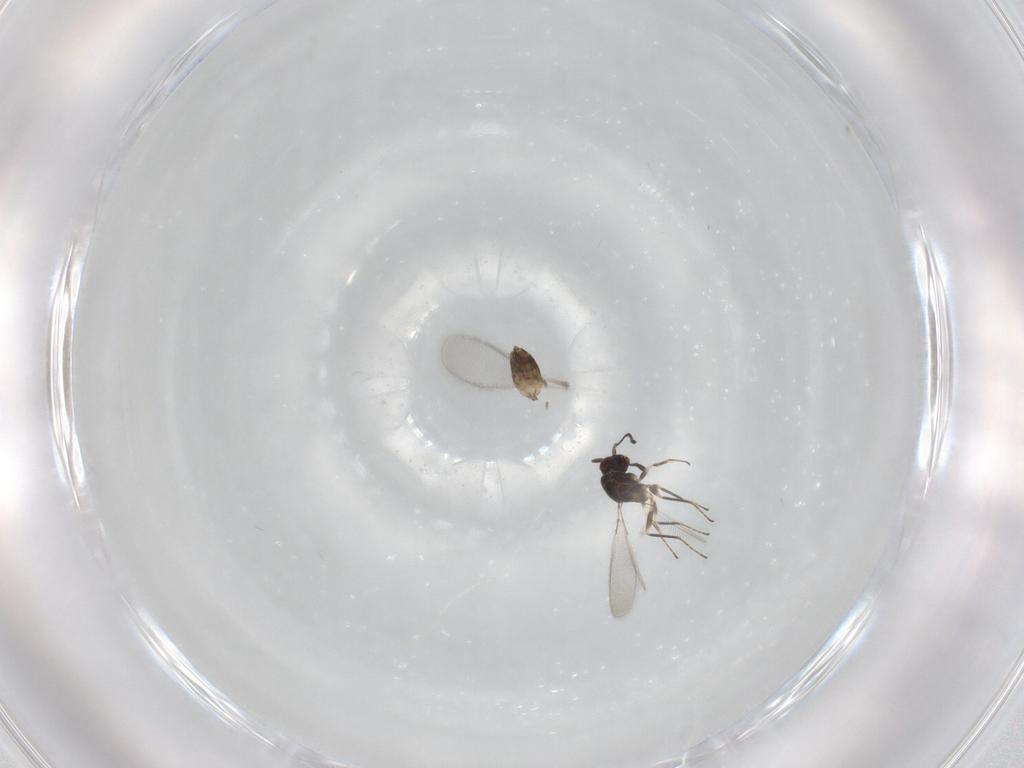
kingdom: Animalia
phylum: Arthropoda
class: Insecta
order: Hymenoptera
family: Mymaridae
